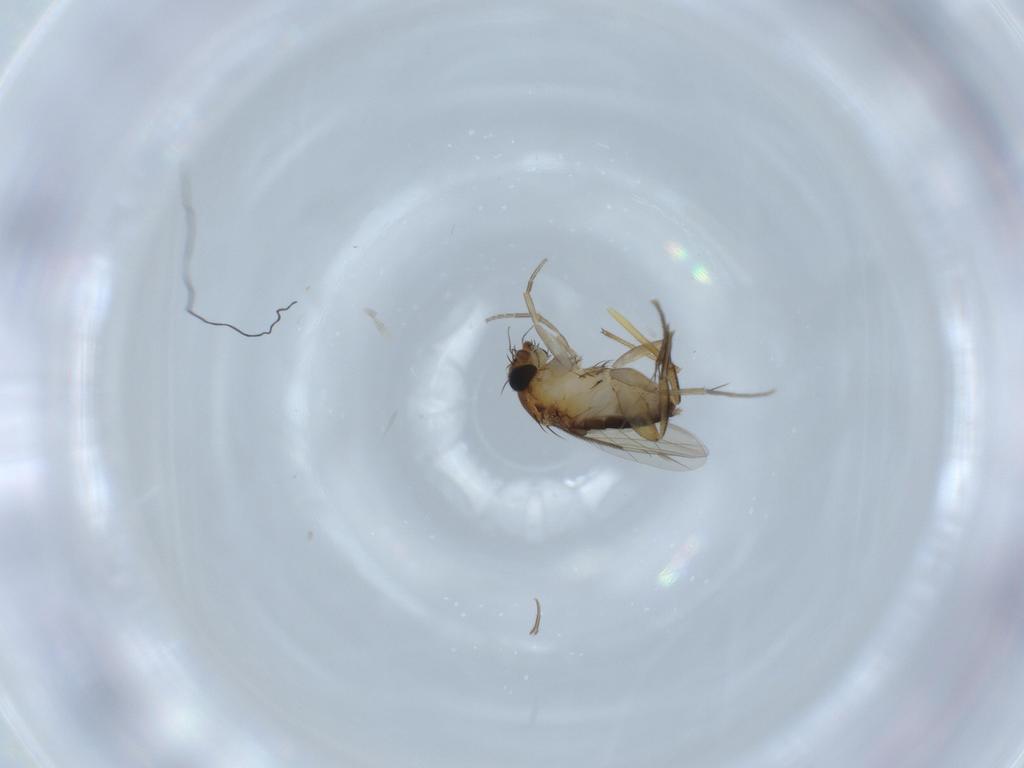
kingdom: Animalia
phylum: Arthropoda
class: Insecta
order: Diptera
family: Phoridae
